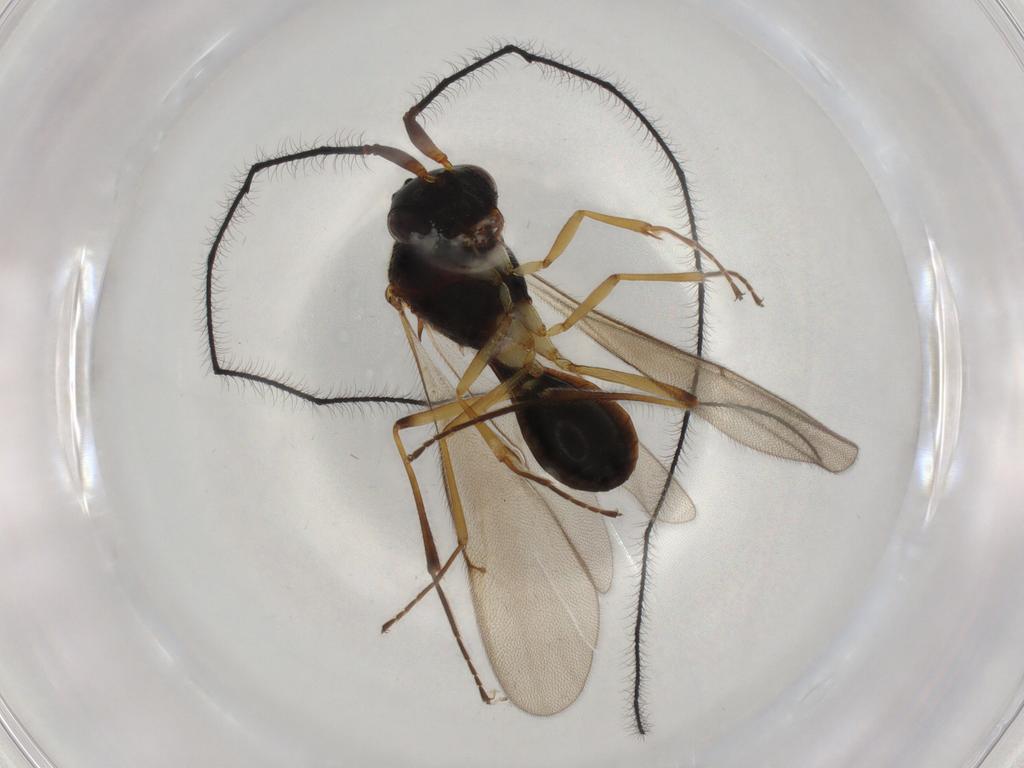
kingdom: Animalia
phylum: Arthropoda
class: Insecta
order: Hymenoptera
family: Scelionidae
